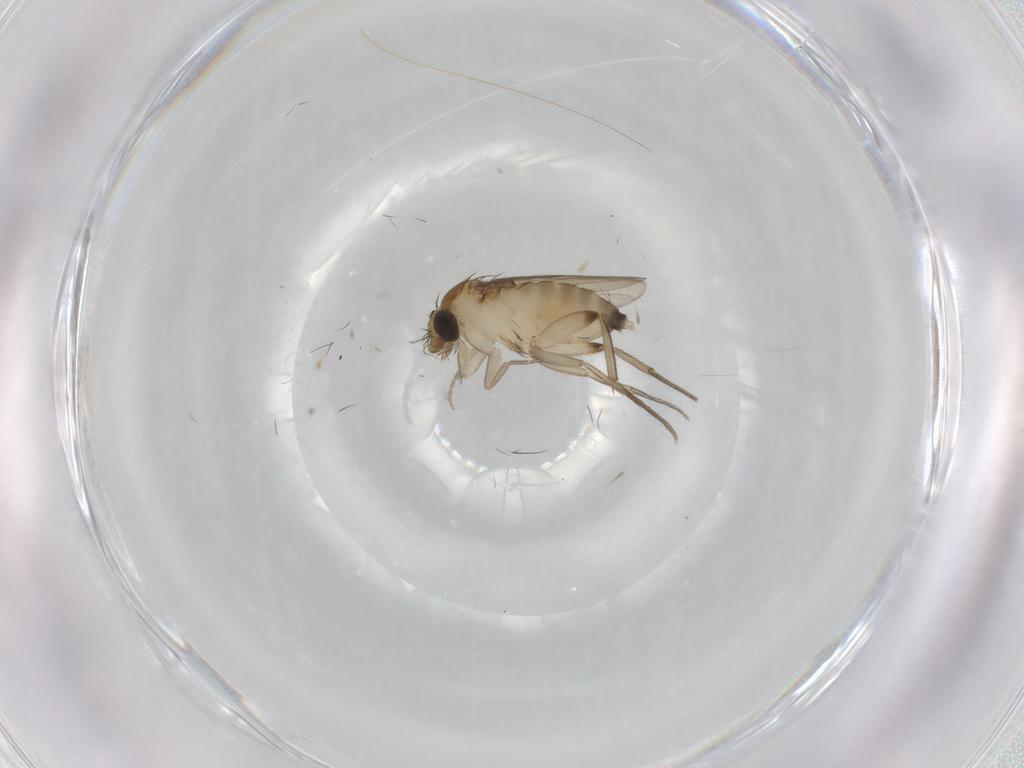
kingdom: Animalia
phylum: Arthropoda
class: Insecta
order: Diptera
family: Phoridae
